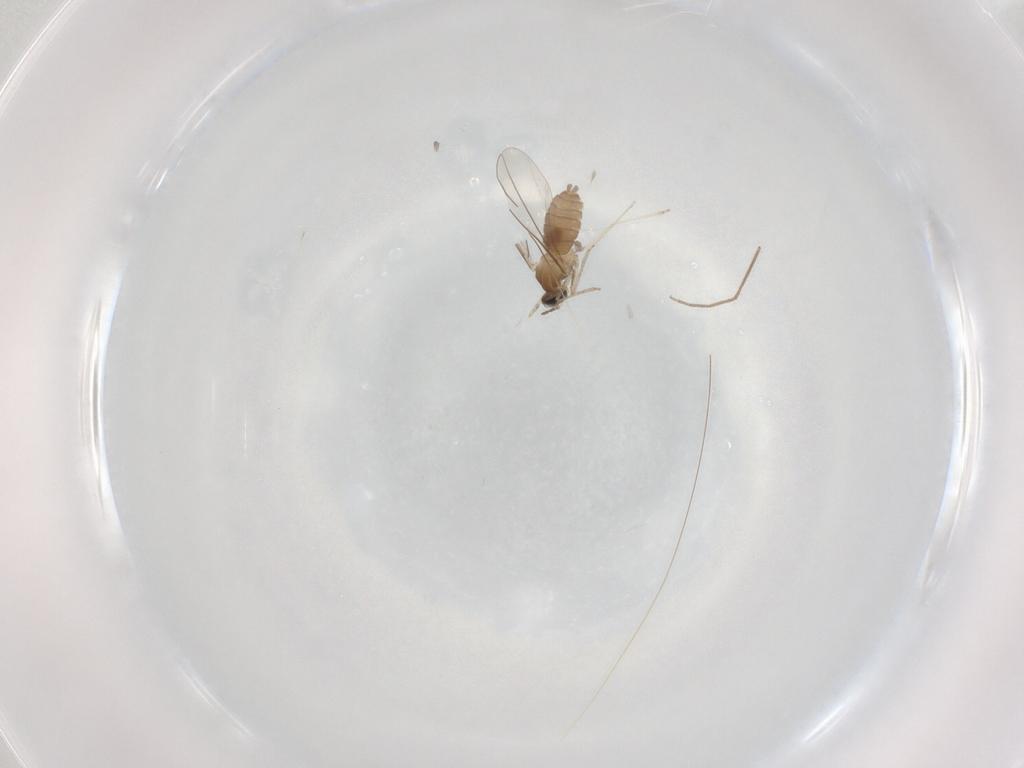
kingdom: Animalia
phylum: Arthropoda
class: Insecta
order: Diptera
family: Cecidomyiidae
